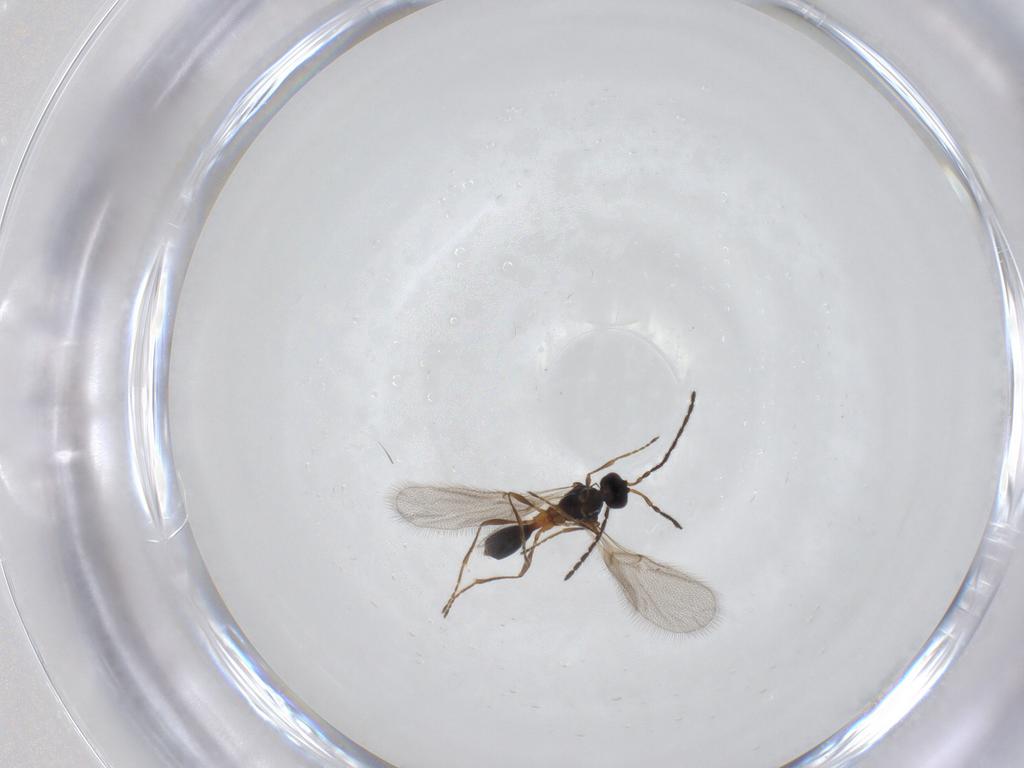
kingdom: Animalia
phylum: Arthropoda
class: Insecta
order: Hymenoptera
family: Diapriidae
